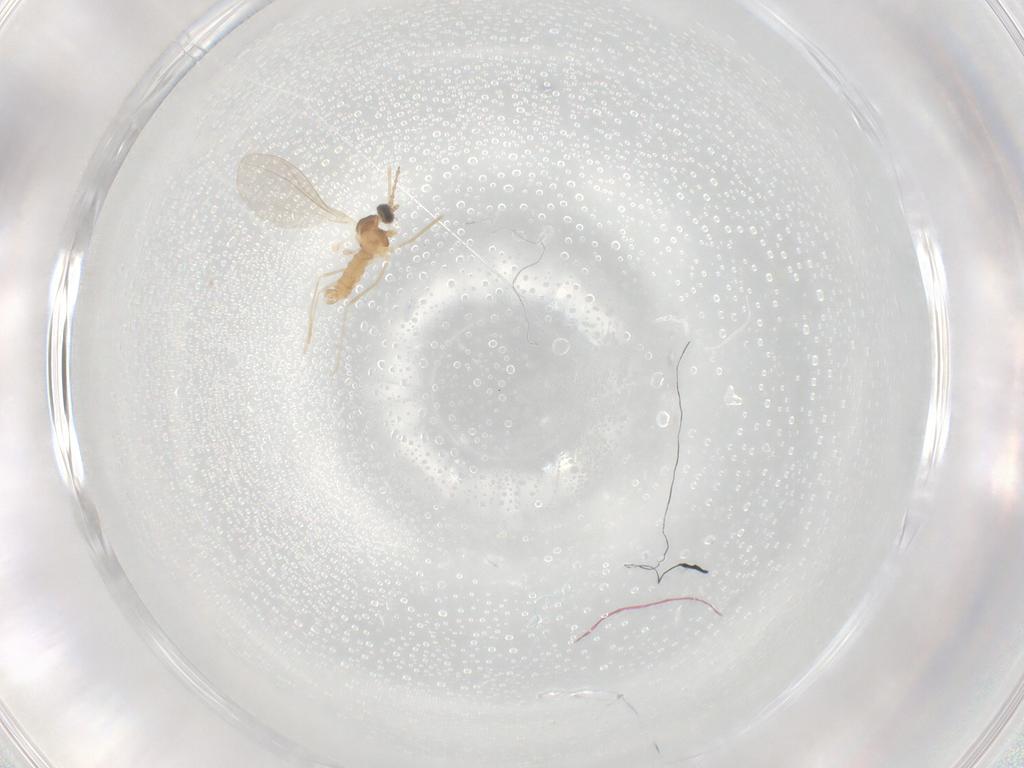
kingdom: Animalia
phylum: Arthropoda
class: Insecta
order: Diptera
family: Cecidomyiidae
